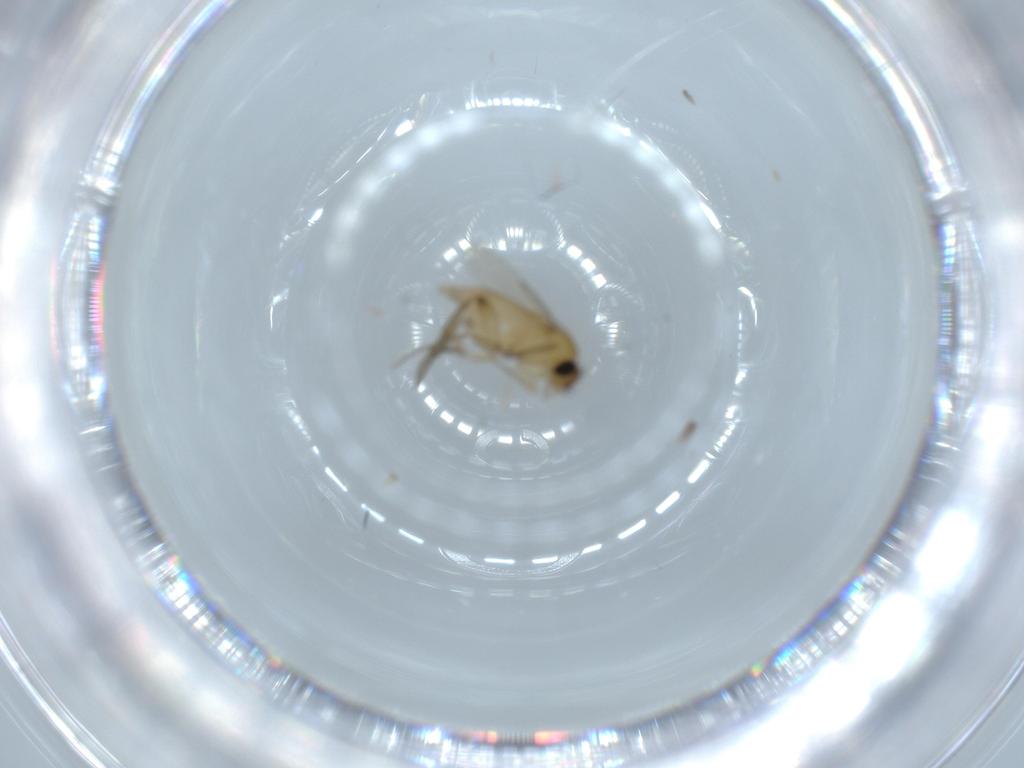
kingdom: Animalia
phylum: Arthropoda
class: Insecta
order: Diptera
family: Phoridae
